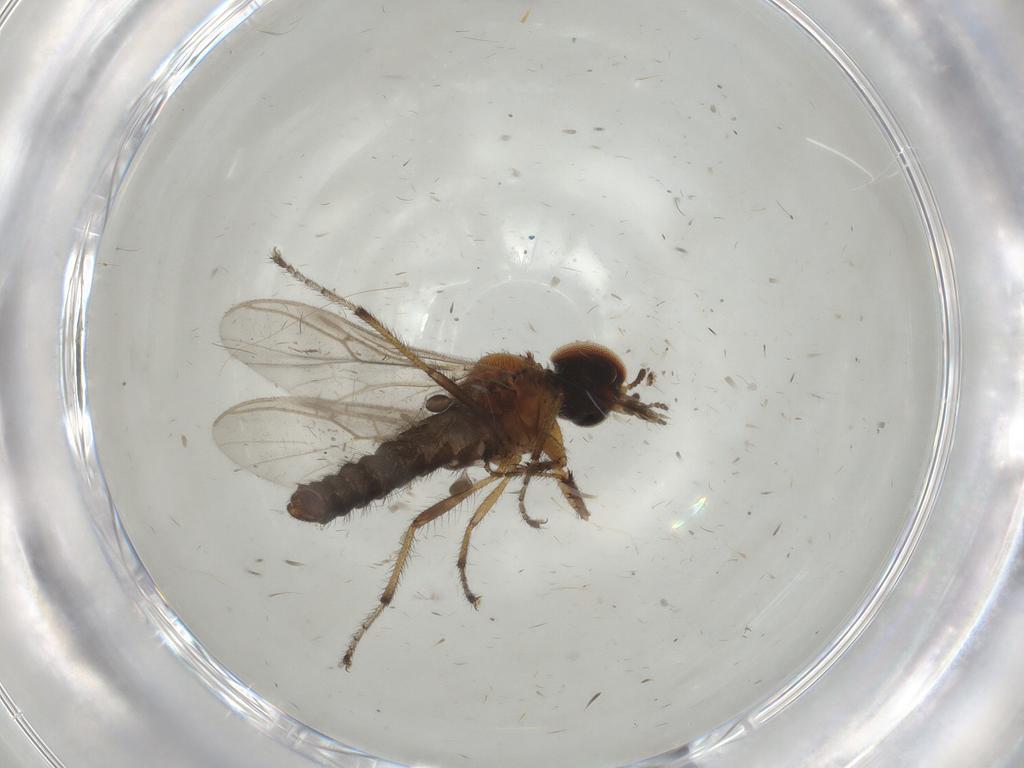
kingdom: Animalia
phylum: Arthropoda
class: Insecta
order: Diptera
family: Bibionidae
